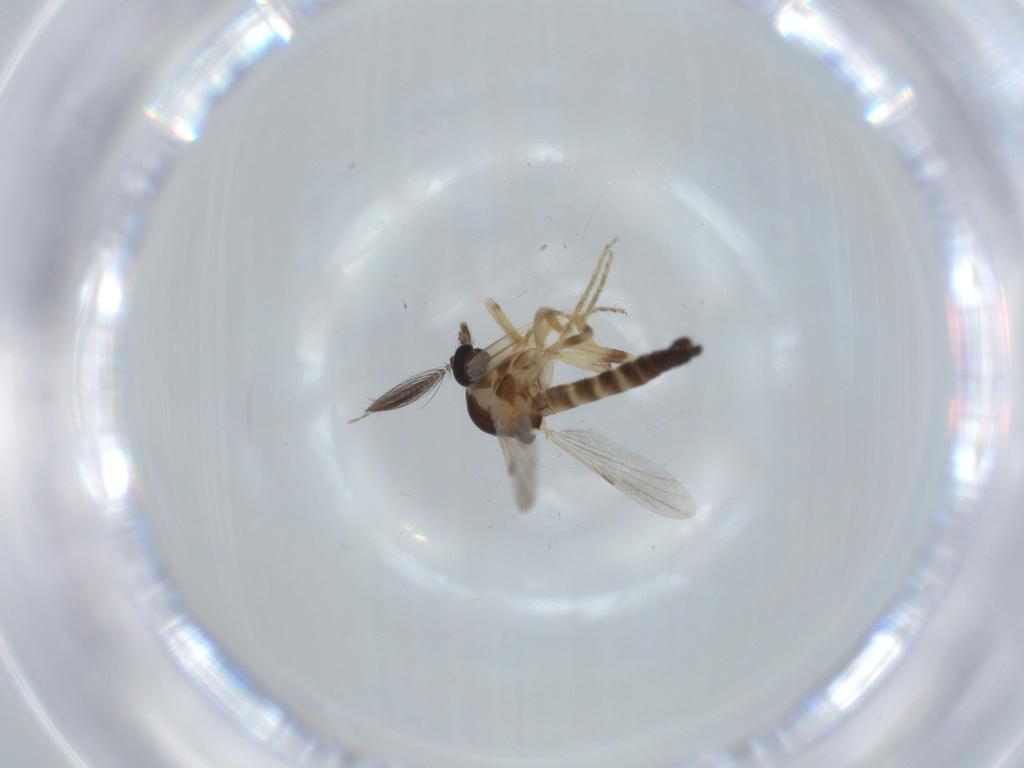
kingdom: Animalia
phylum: Arthropoda
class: Insecta
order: Diptera
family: Ceratopogonidae
